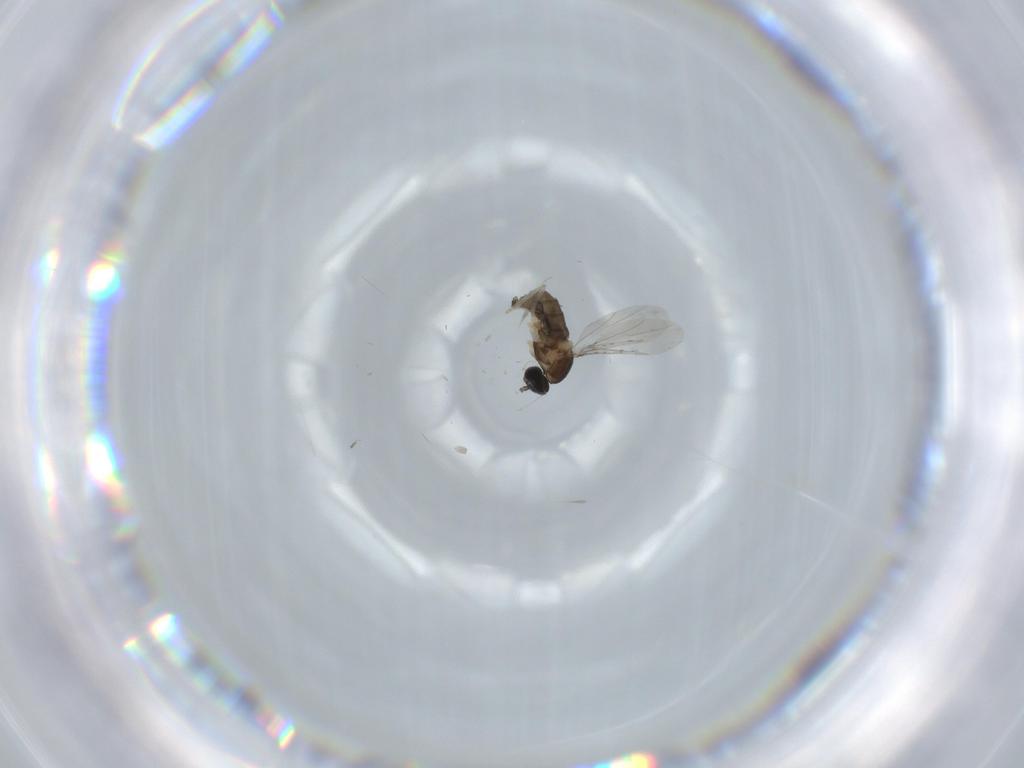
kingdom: Animalia
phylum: Arthropoda
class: Insecta
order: Diptera
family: Cecidomyiidae
